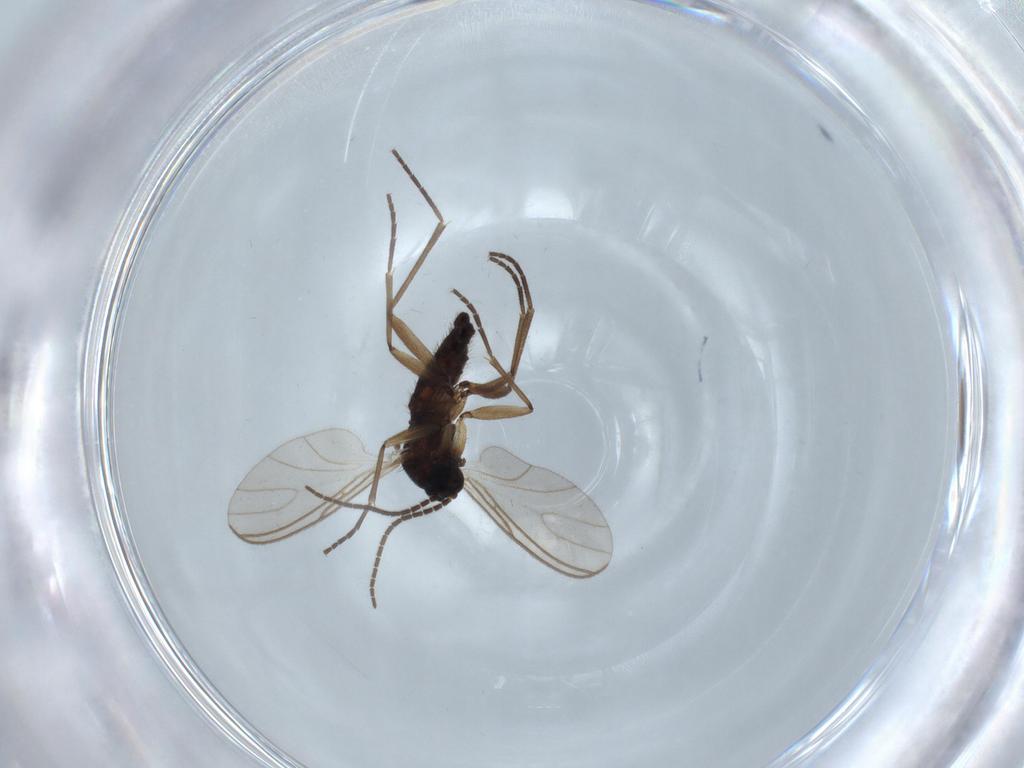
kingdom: Animalia
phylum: Arthropoda
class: Insecta
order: Diptera
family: Sciaridae
